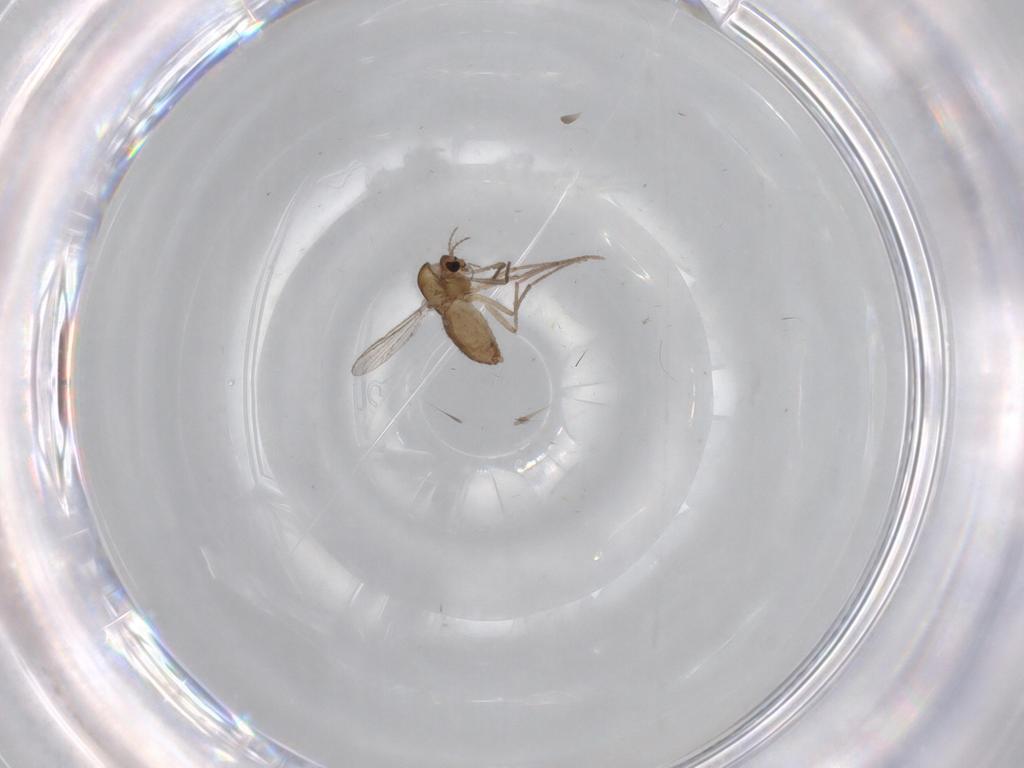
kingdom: Animalia
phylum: Arthropoda
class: Insecta
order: Diptera
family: Chironomidae
